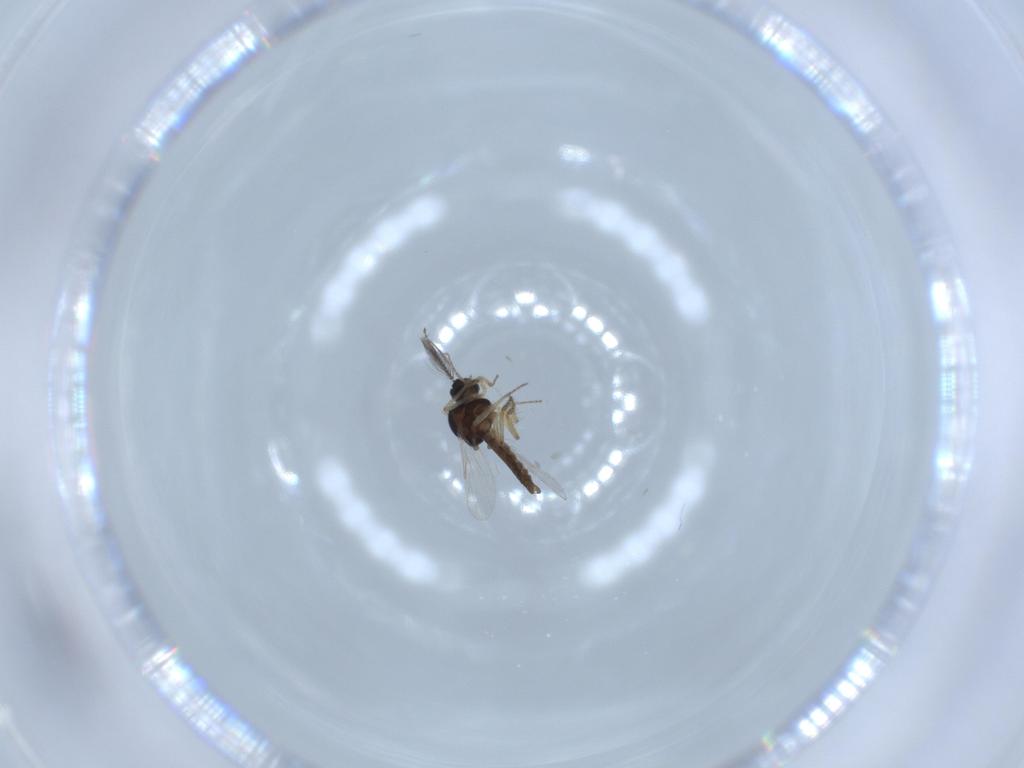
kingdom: Animalia
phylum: Arthropoda
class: Insecta
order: Diptera
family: Ceratopogonidae
